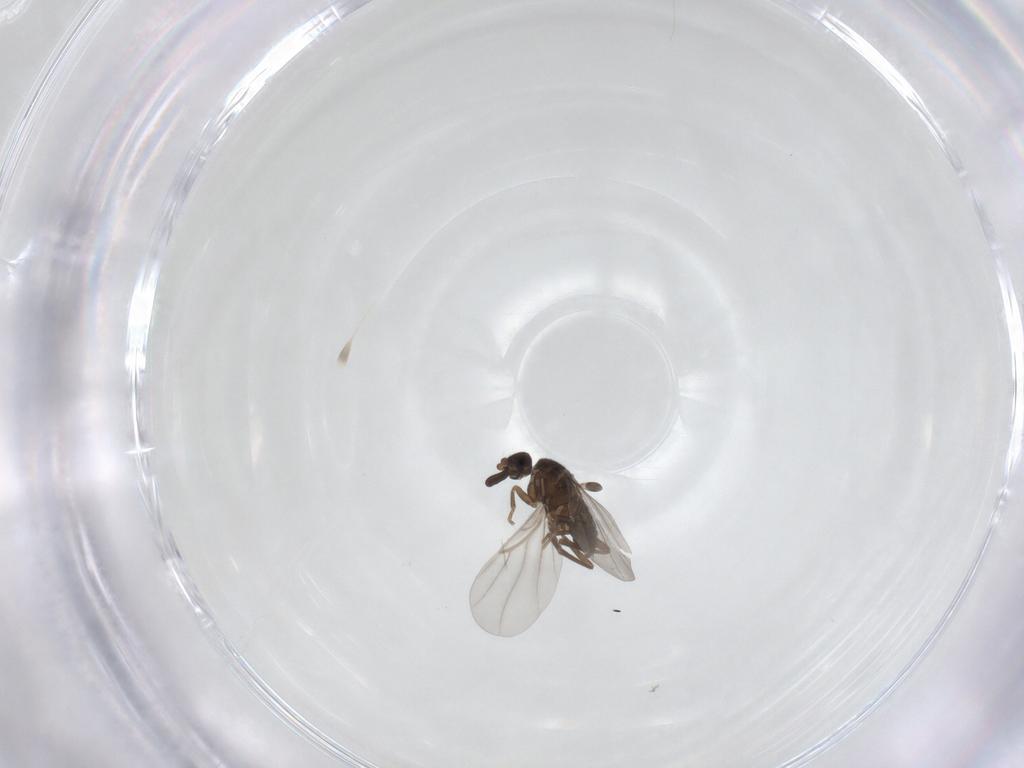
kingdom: Animalia
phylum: Arthropoda
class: Insecta
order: Diptera
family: Phoridae
